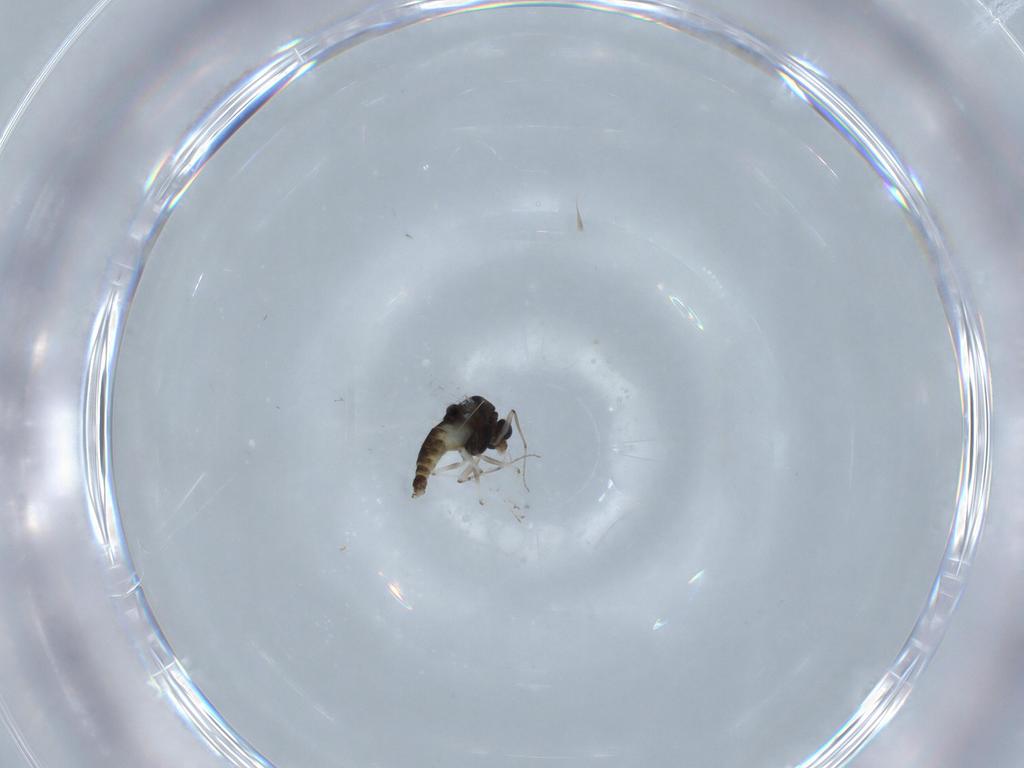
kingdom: Animalia
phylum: Arthropoda
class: Insecta
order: Diptera
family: Chironomidae
